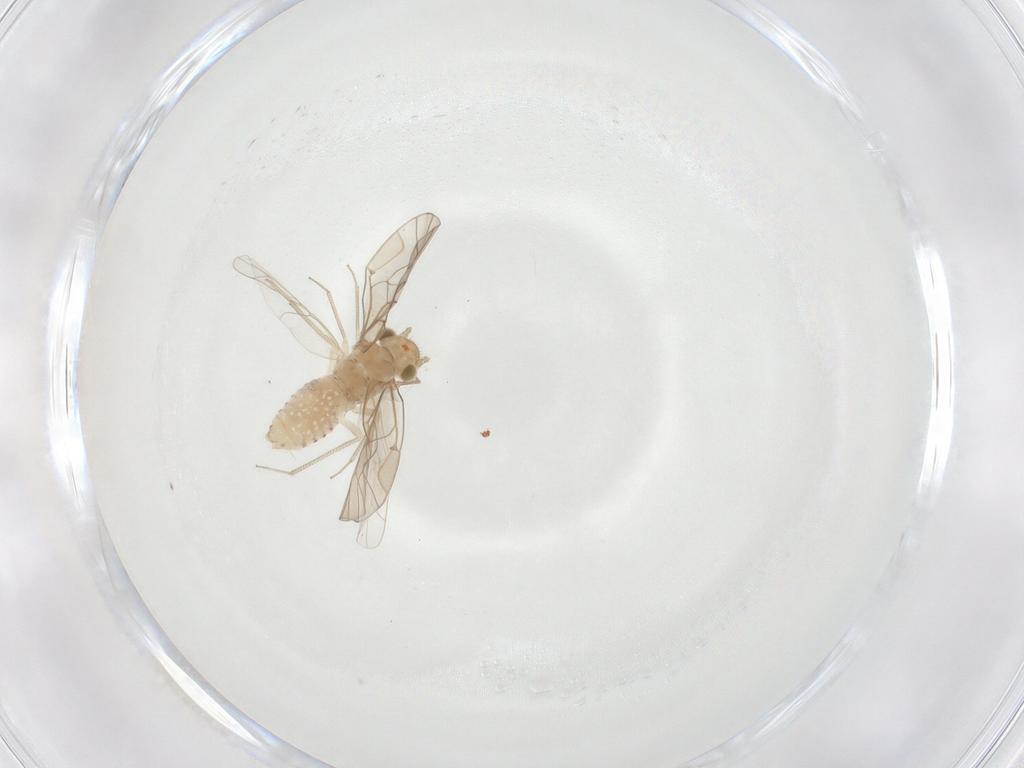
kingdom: Animalia
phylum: Arthropoda
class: Insecta
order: Psocodea
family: Lachesillidae
